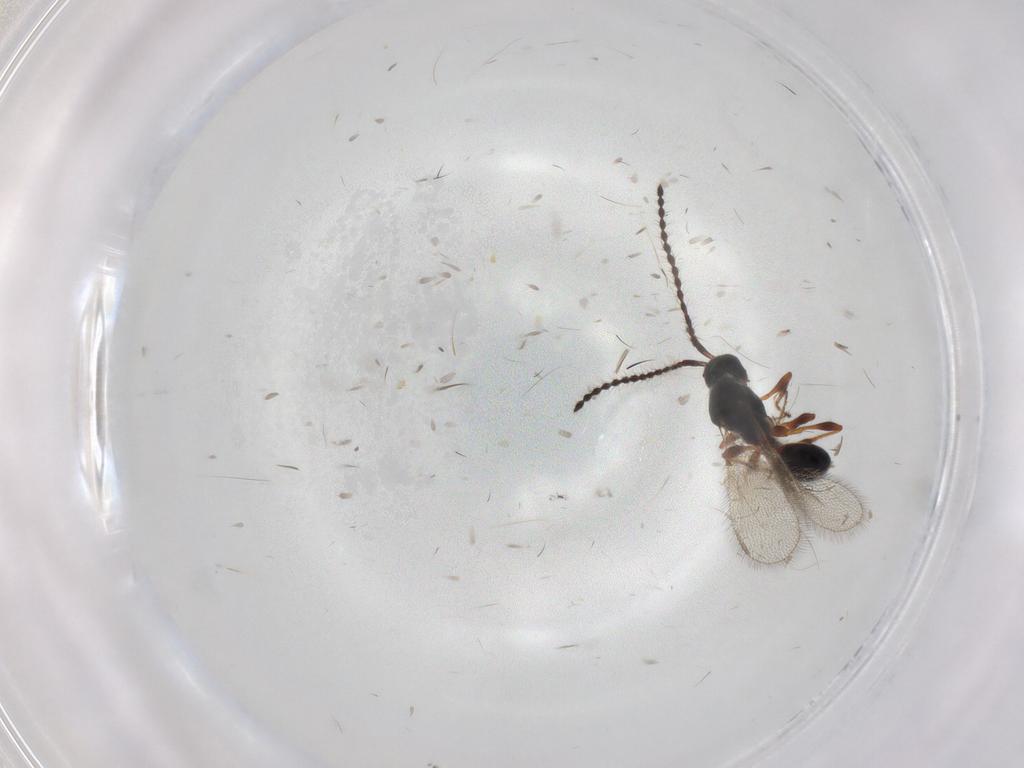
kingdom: Animalia
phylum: Arthropoda
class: Insecta
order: Hymenoptera
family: Diapriidae
